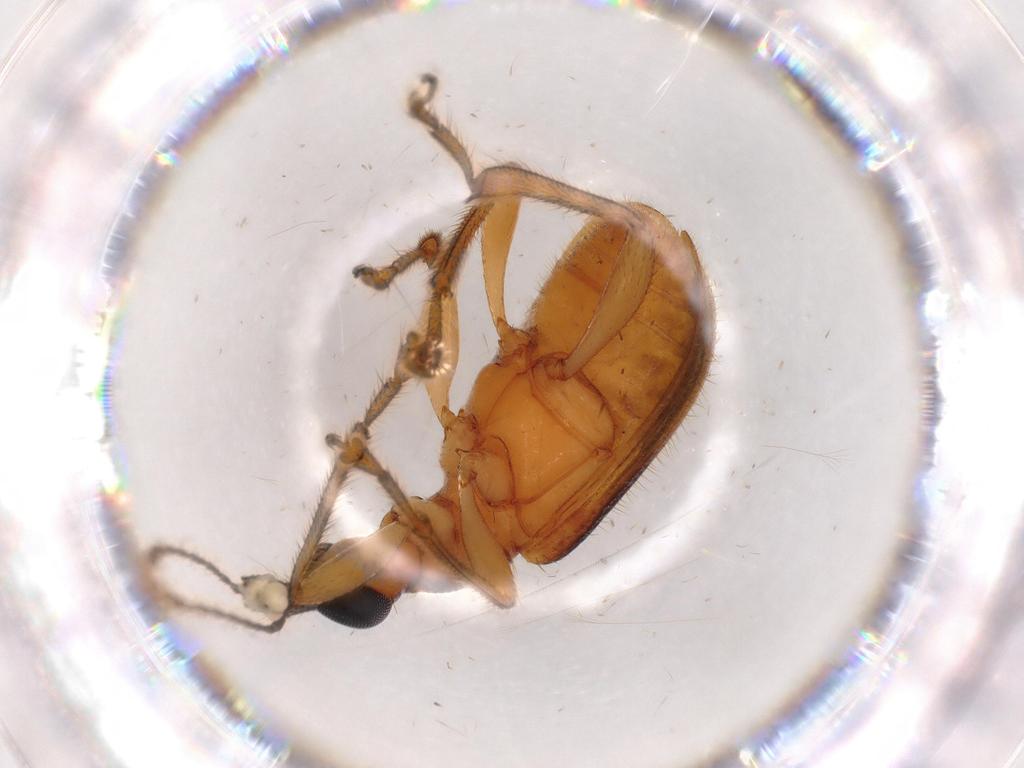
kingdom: Animalia
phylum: Arthropoda
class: Insecta
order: Coleoptera
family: Attelabidae
